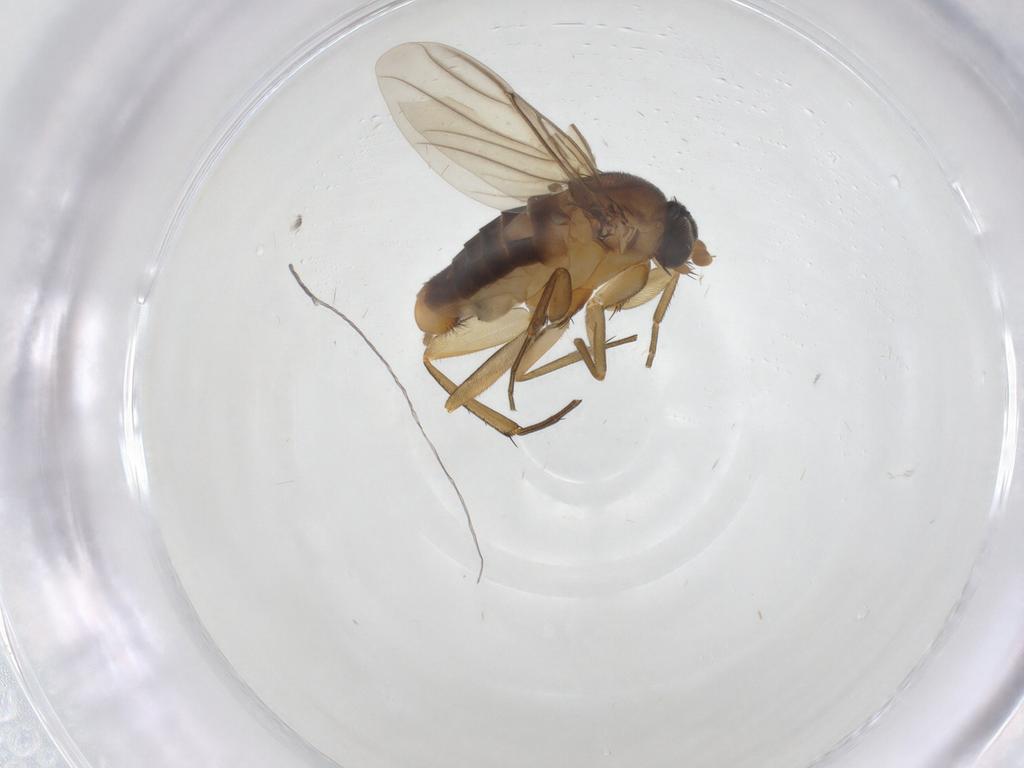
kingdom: Animalia
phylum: Arthropoda
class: Insecta
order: Diptera
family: Phoridae
